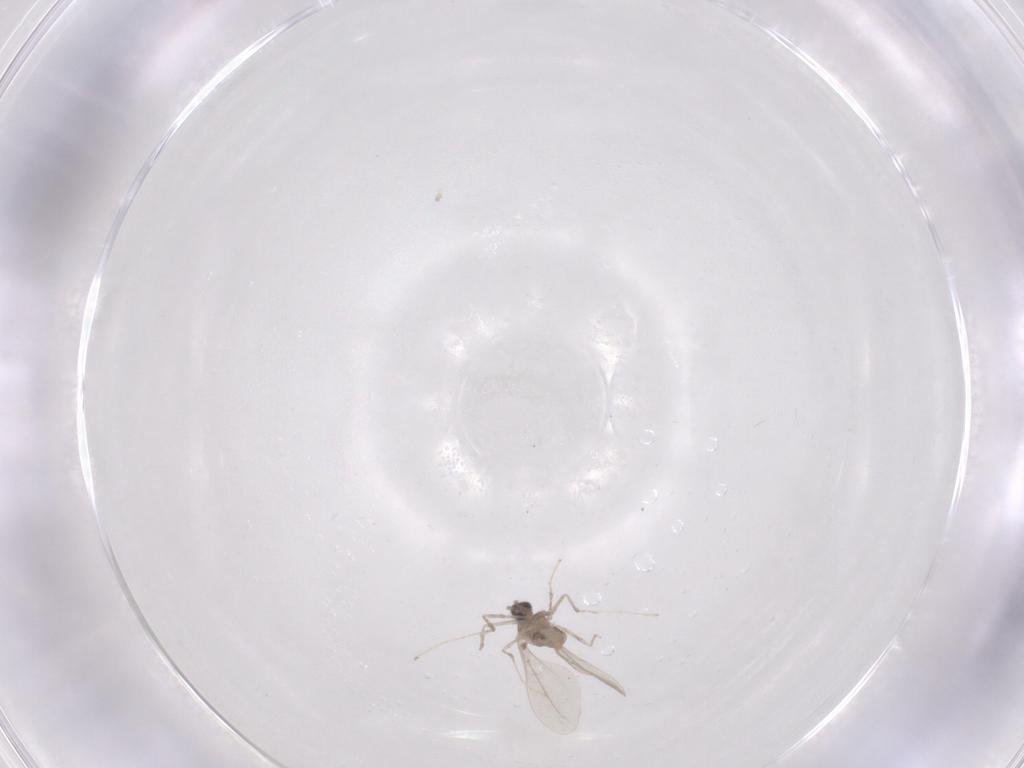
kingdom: Animalia
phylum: Arthropoda
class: Insecta
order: Diptera
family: Cecidomyiidae
